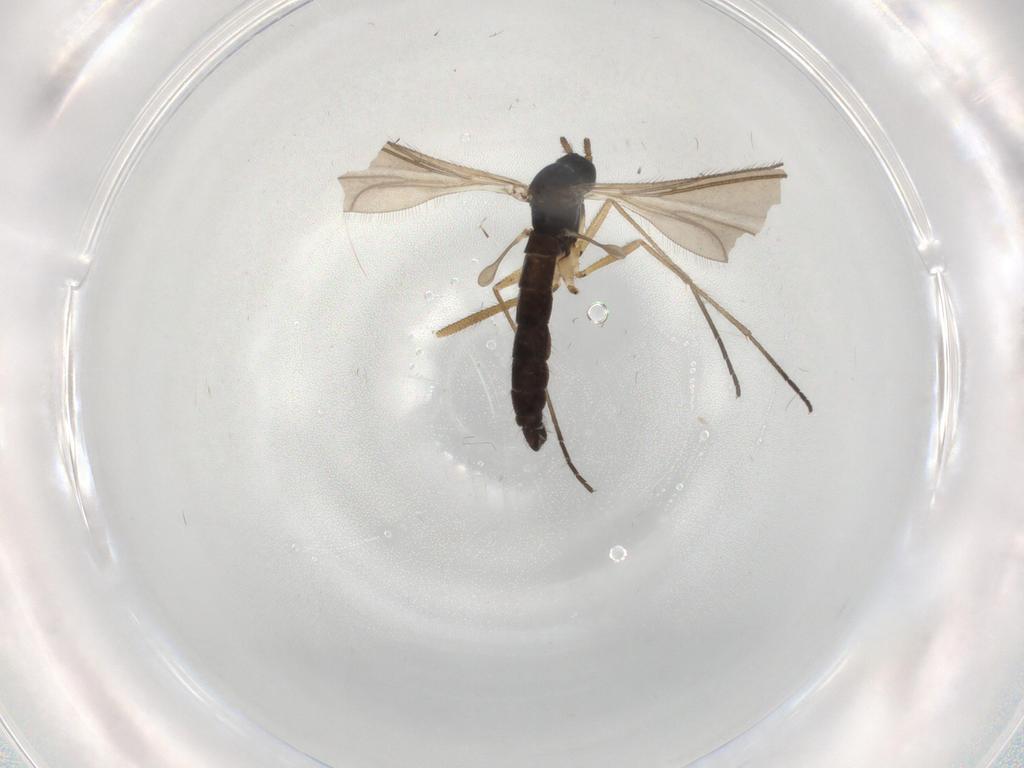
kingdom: Animalia
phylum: Arthropoda
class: Insecta
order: Diptera
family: Sciaridae
